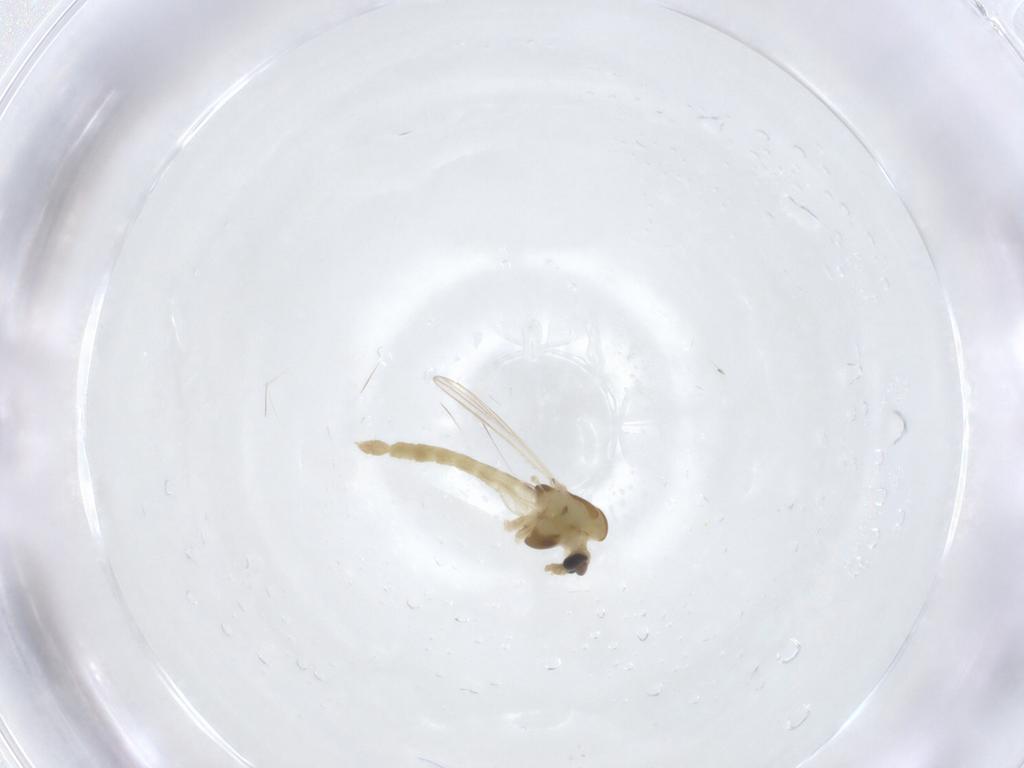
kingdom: Animalia
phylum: Arthropoda
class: Insecta
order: Diptera
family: Chironomidae
